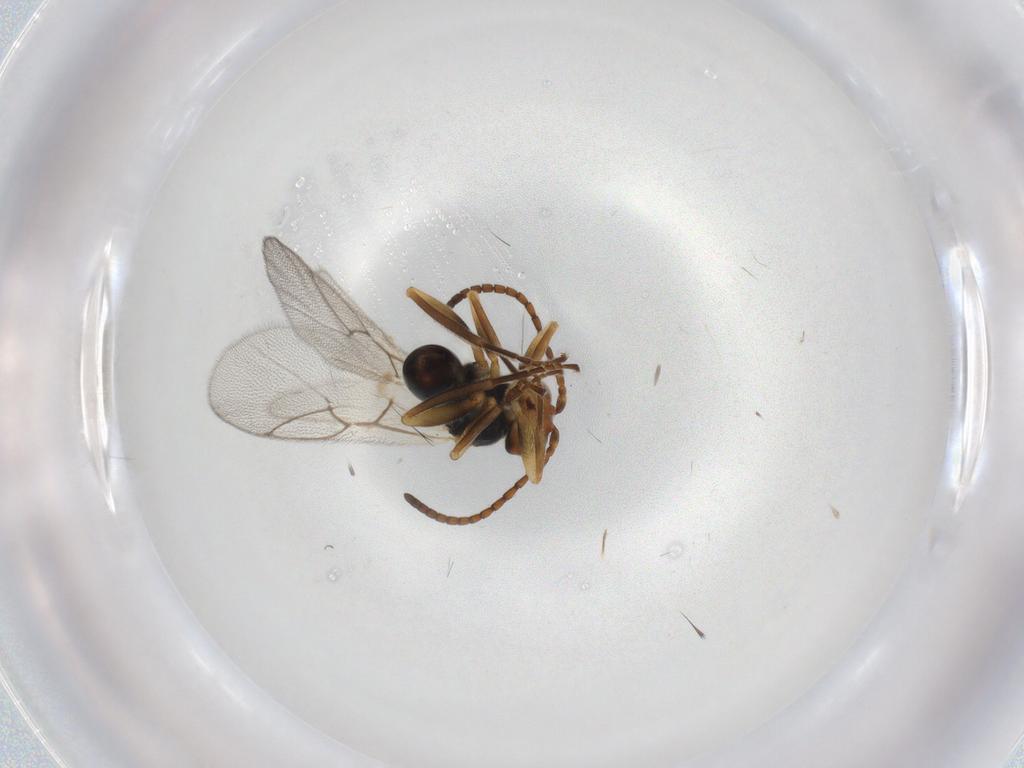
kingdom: Animalia
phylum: Arthropoda
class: Insecta
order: Hymenoptera
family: Cynipidae
